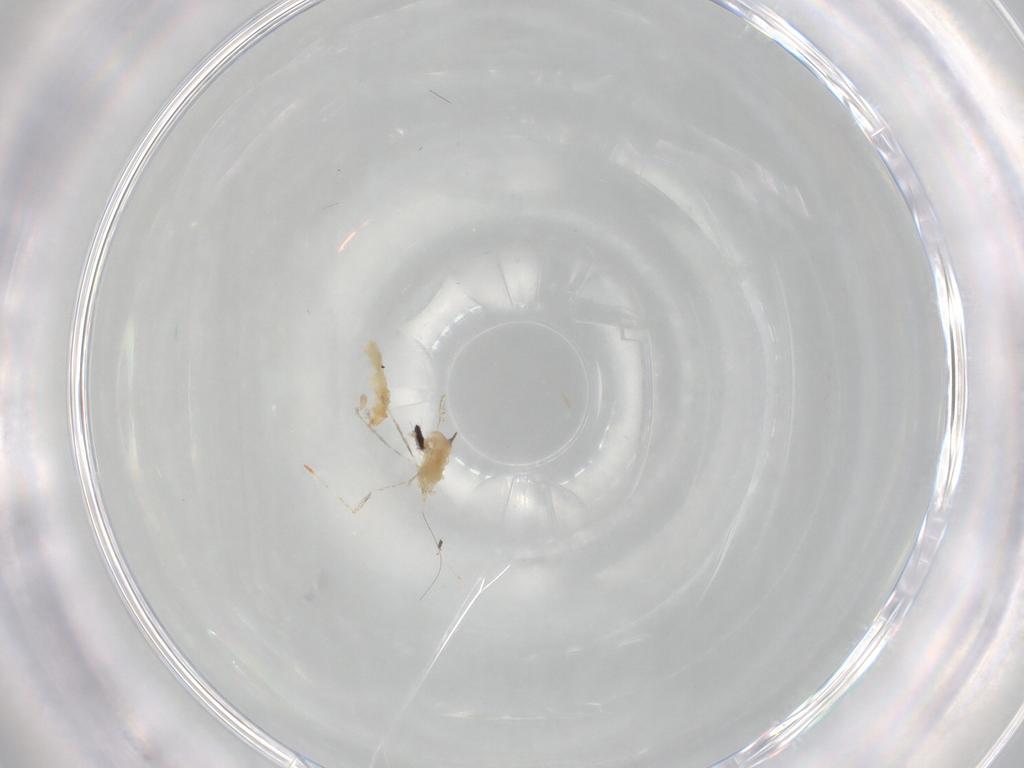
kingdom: Animalia
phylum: Arthropoda
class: Insecta
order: Diptera
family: Cecidomyiidae
